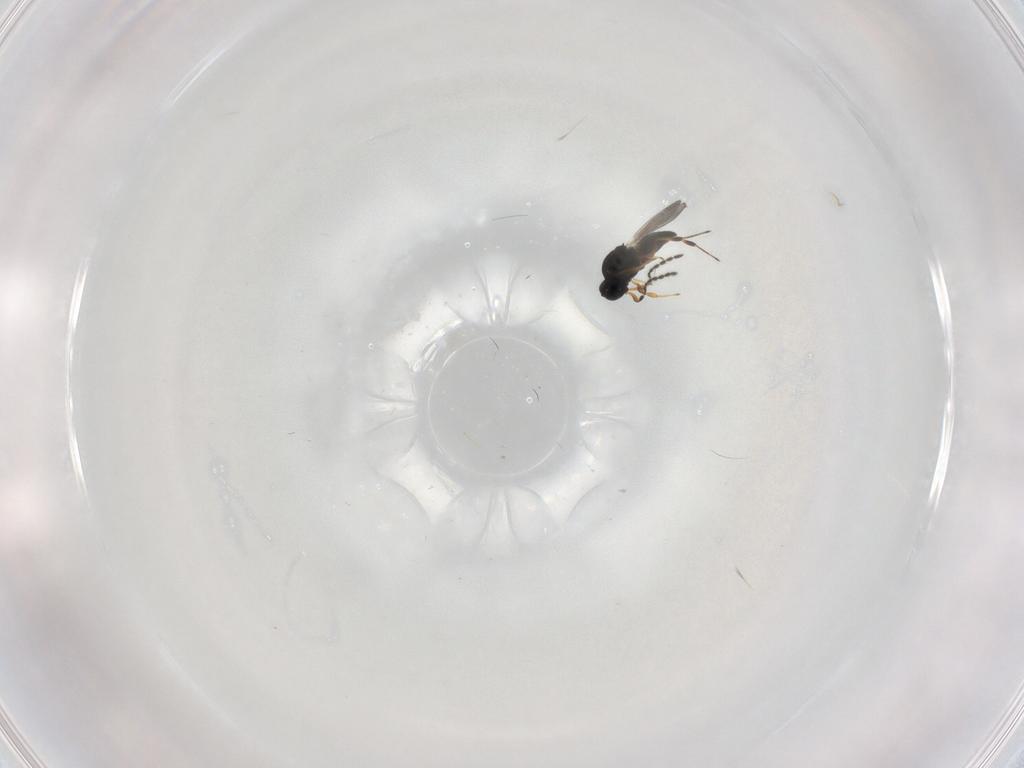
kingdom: Animalia
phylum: Arthropoda
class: Insecta
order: Hymenoptera
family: Platygastridae
